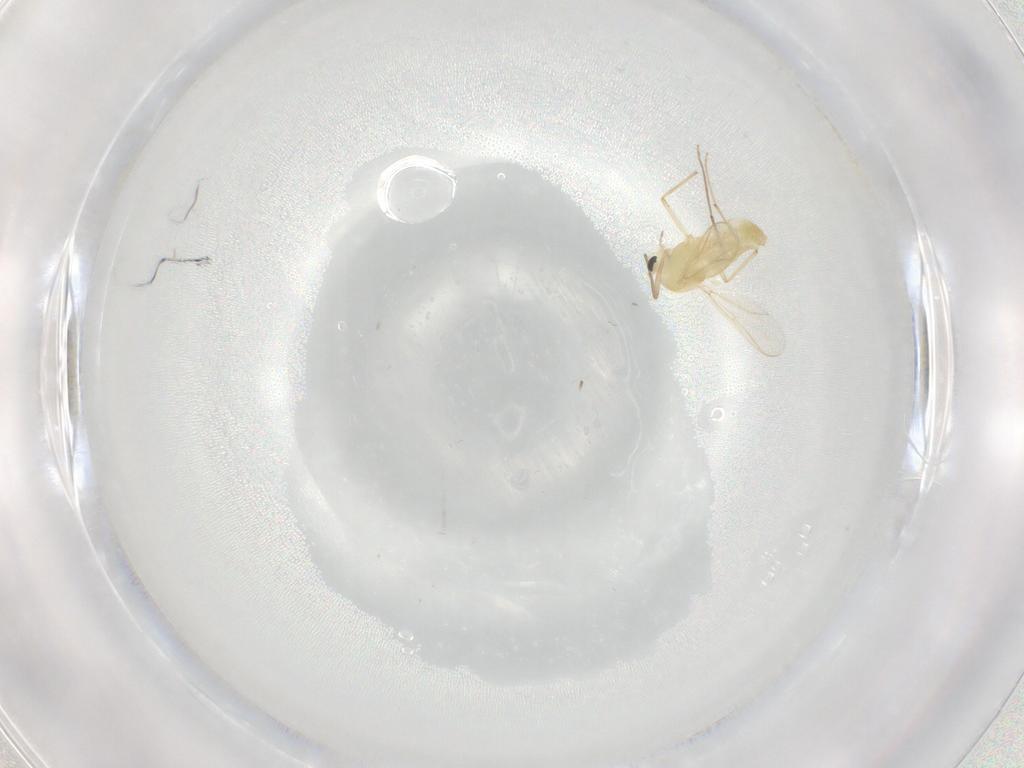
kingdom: Animalia
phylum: Arthropoda
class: Insecta
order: Diptera
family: Chironomidae
